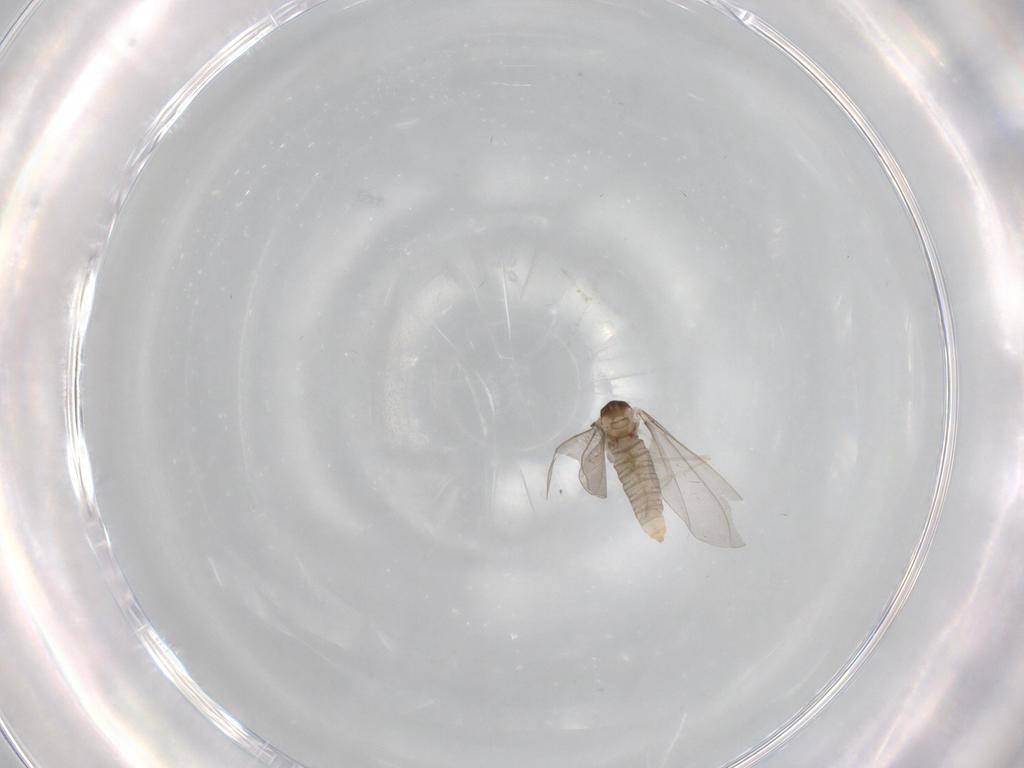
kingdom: Animalia
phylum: Arthropoda
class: Insecta
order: Diptera
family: Cecidomyiidae
